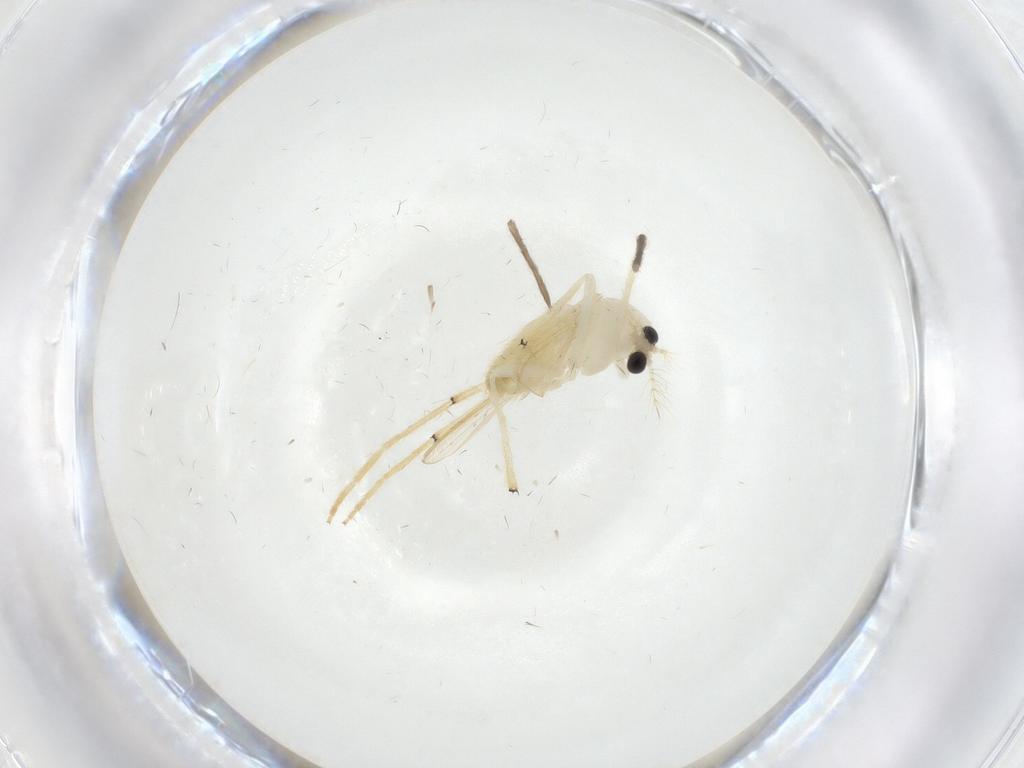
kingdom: Animalia
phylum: Arthropoda
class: Insecta
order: Diptera
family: Chironomidae
